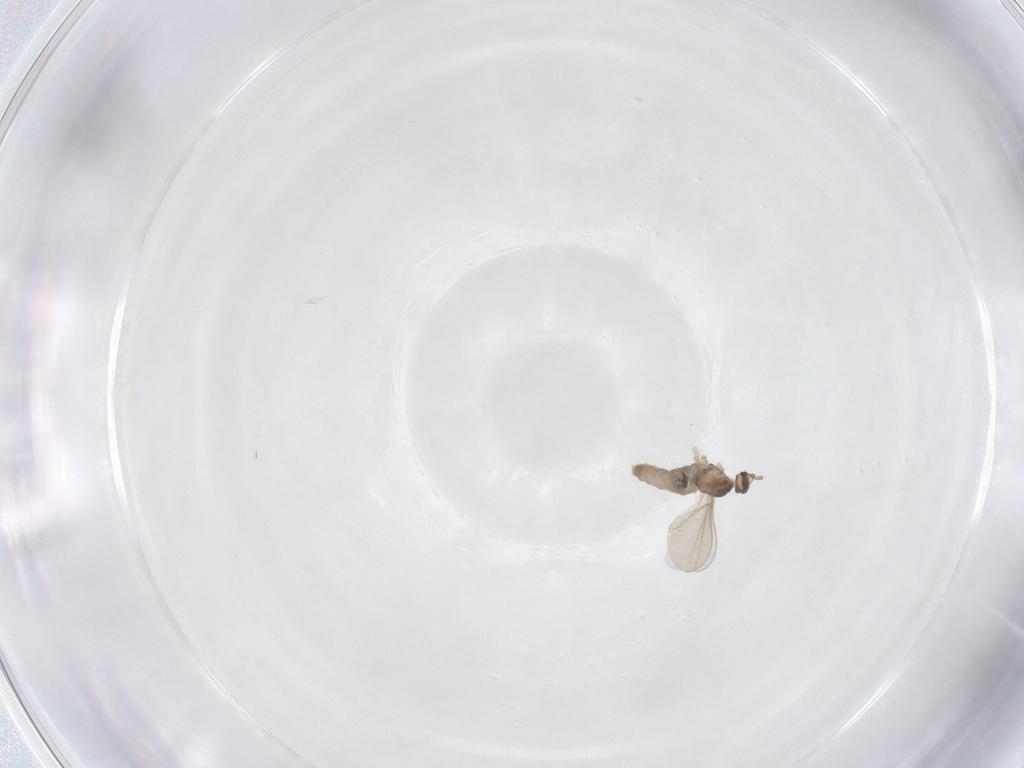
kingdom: Animalia
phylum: Arthropoda
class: Insecta
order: Diptera
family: Cecidomyiidae
